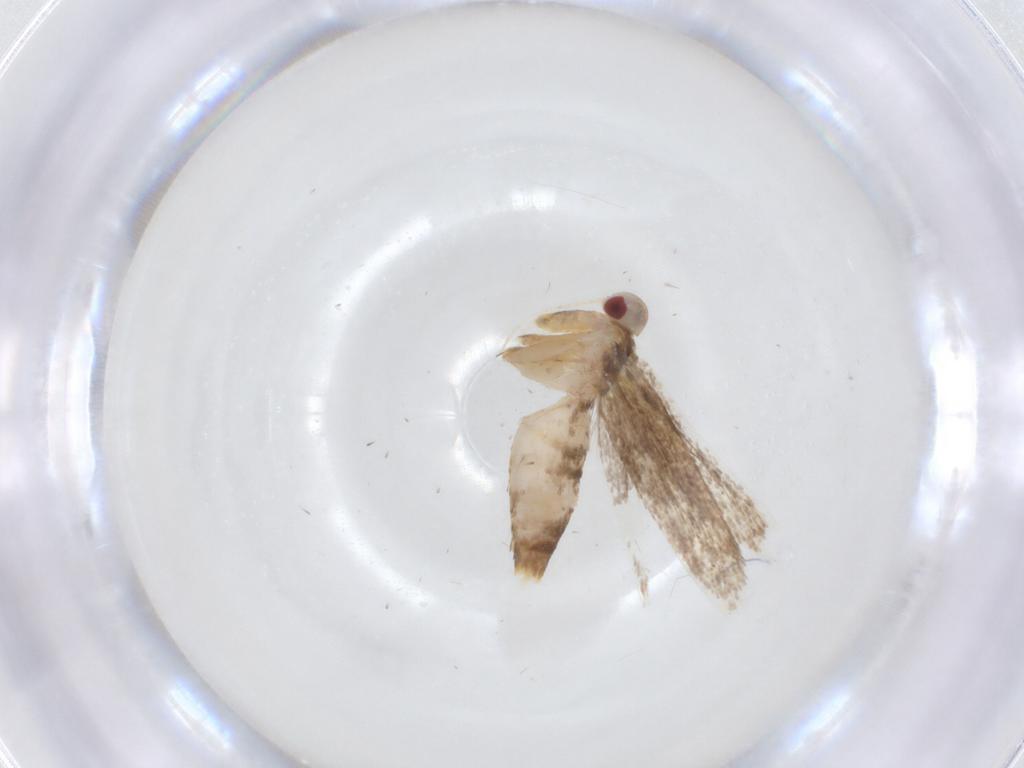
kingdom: Animalia
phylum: Arthropoda
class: Insecta
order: Lepidoptera
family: Cosmopterigidae
